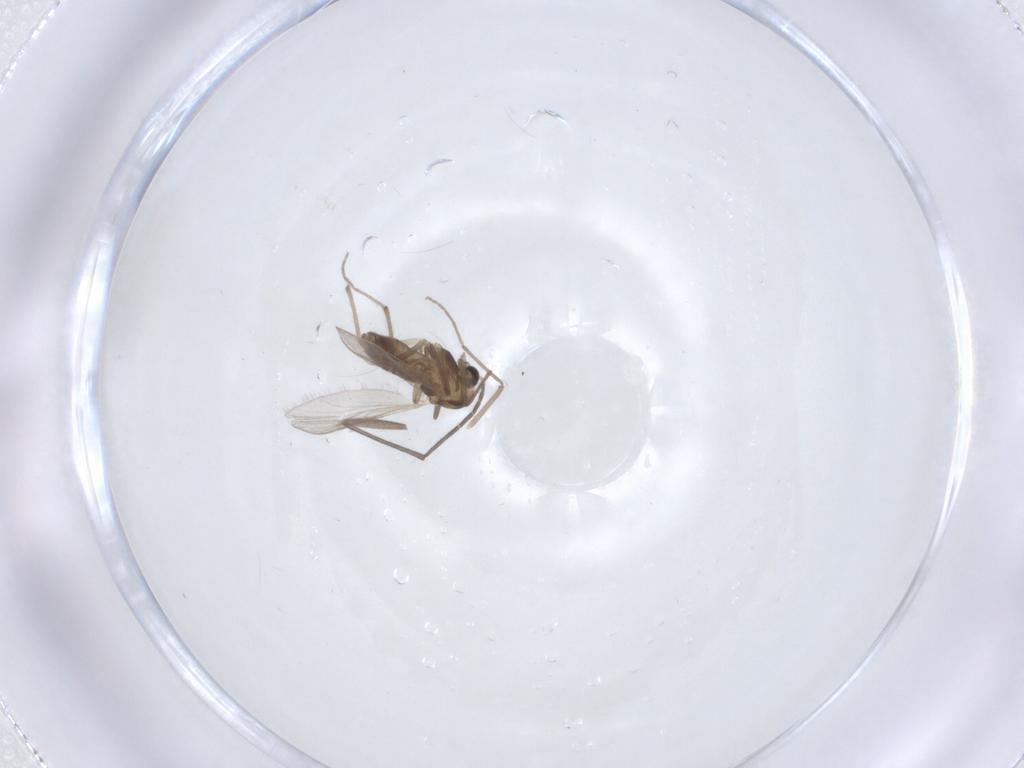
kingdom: Animalia
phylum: Arthropoda
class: Insecta
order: Diptera
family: Chironomidae
